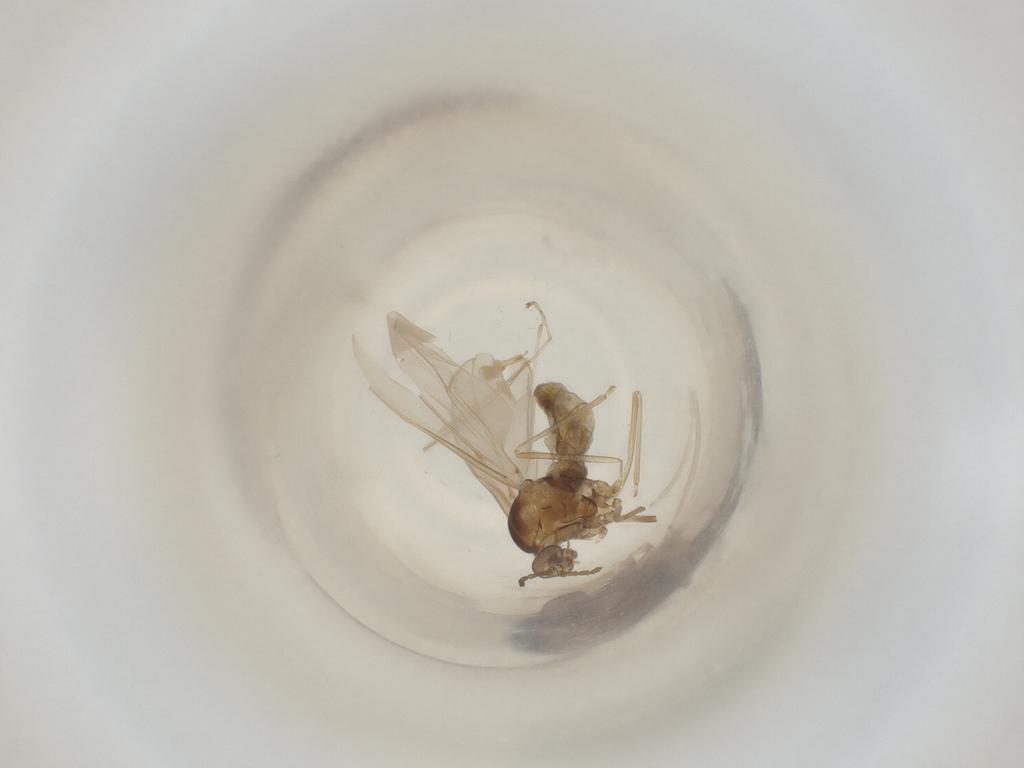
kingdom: Animalia
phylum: Arthropoda
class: Insecta
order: Diptera
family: Cecidomyiidae
